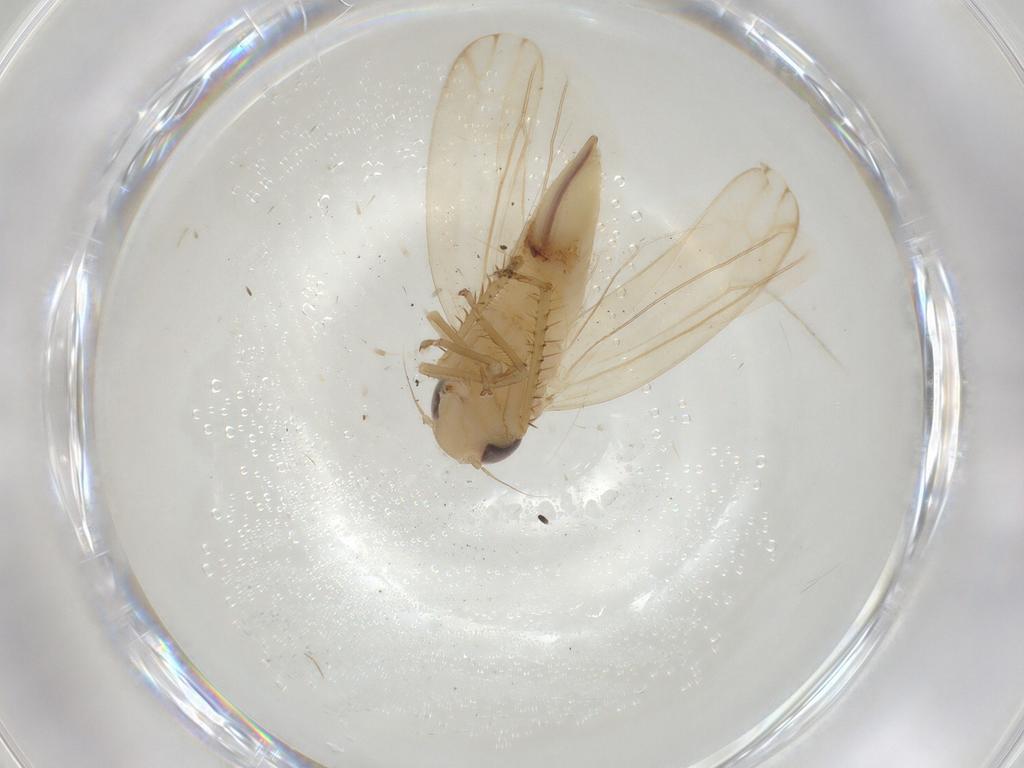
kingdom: Animalia
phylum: Arthropoda
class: Insecta
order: Hemiptera
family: Cicadellidae
